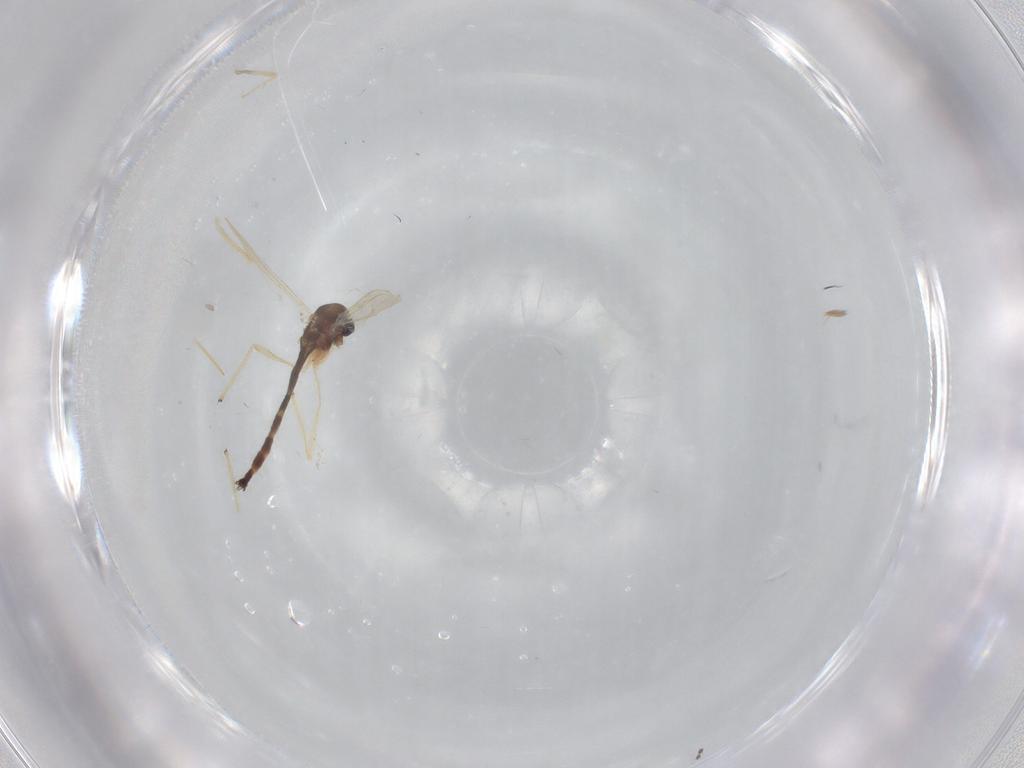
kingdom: Animalia
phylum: Arthropoda
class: Insecta
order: Diptera
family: Chironomidae
